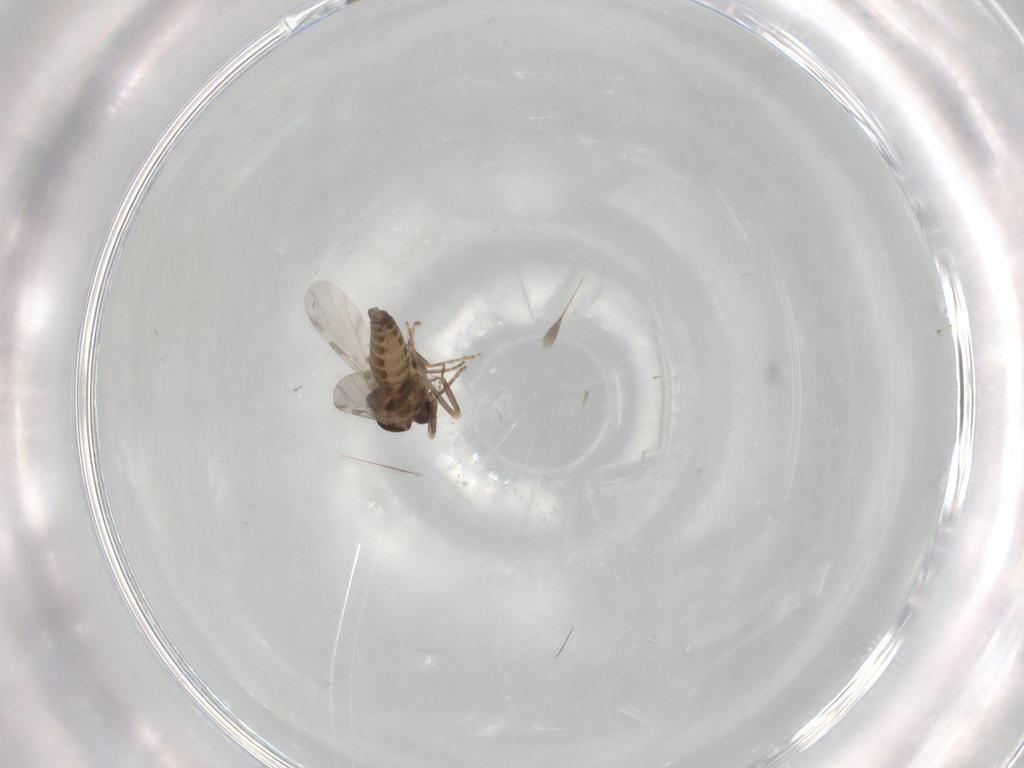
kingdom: Animalia
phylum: Arthropoda
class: Insecta
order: Diptera
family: Ceratopogonidae
